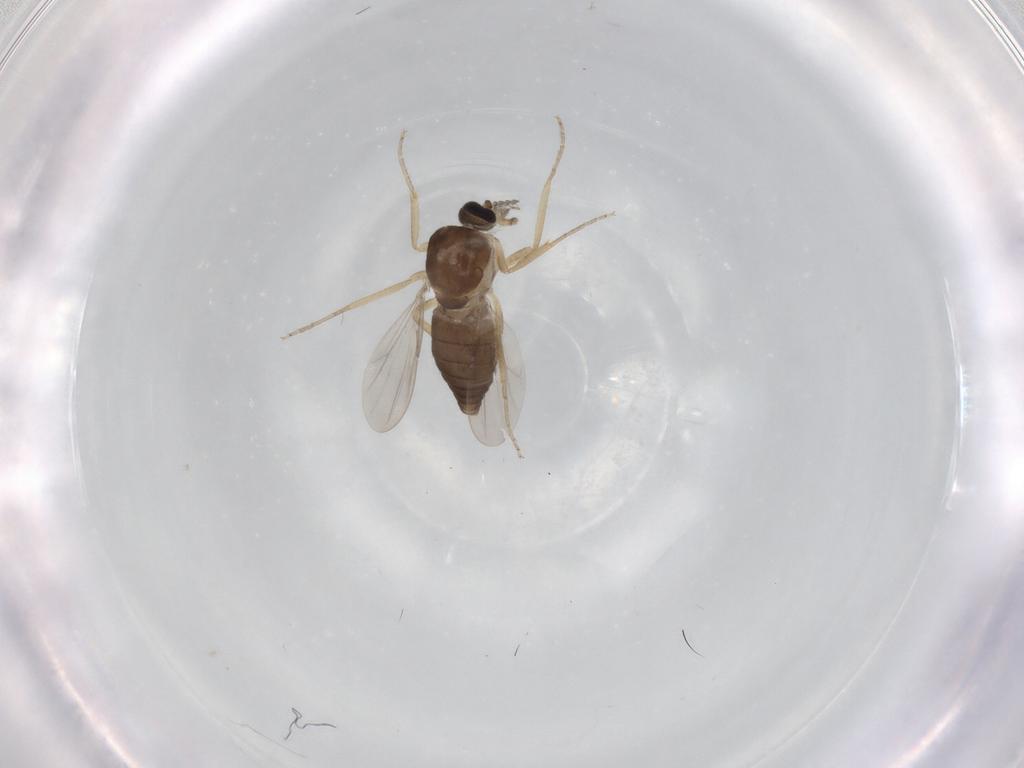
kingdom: Animalia
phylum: Arthropoda
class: Insecta
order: Diptera
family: Ceratopogonidae
